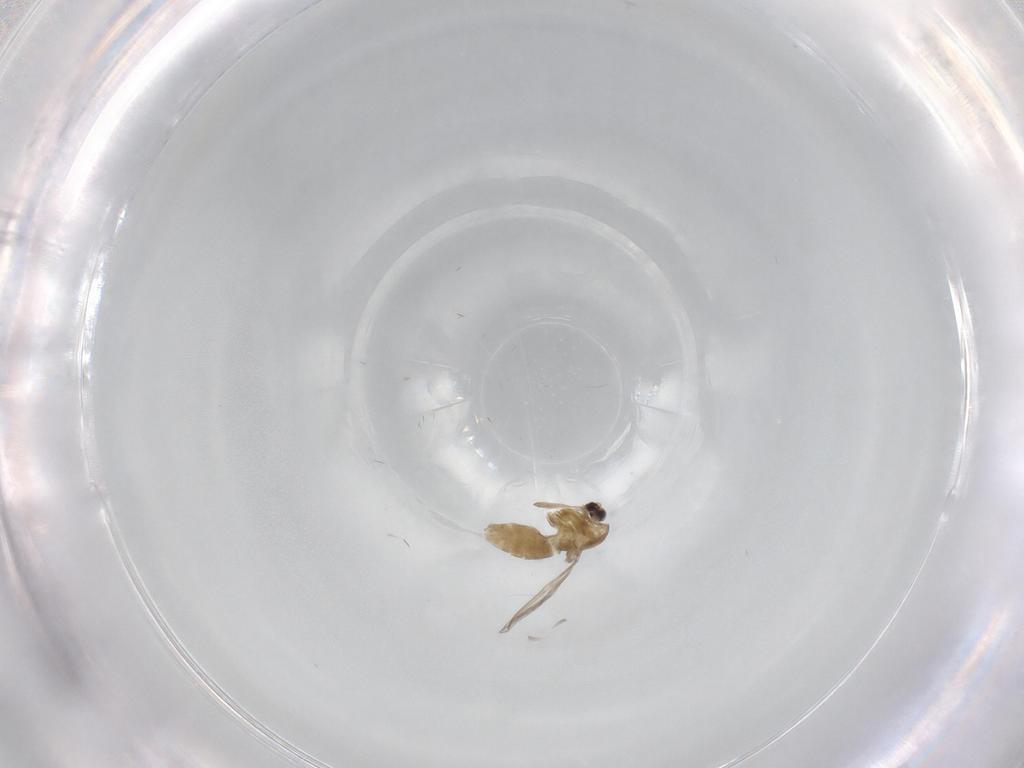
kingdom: Animalia
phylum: Arthropoda
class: Insecta
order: Diptera
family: Chironomidae
